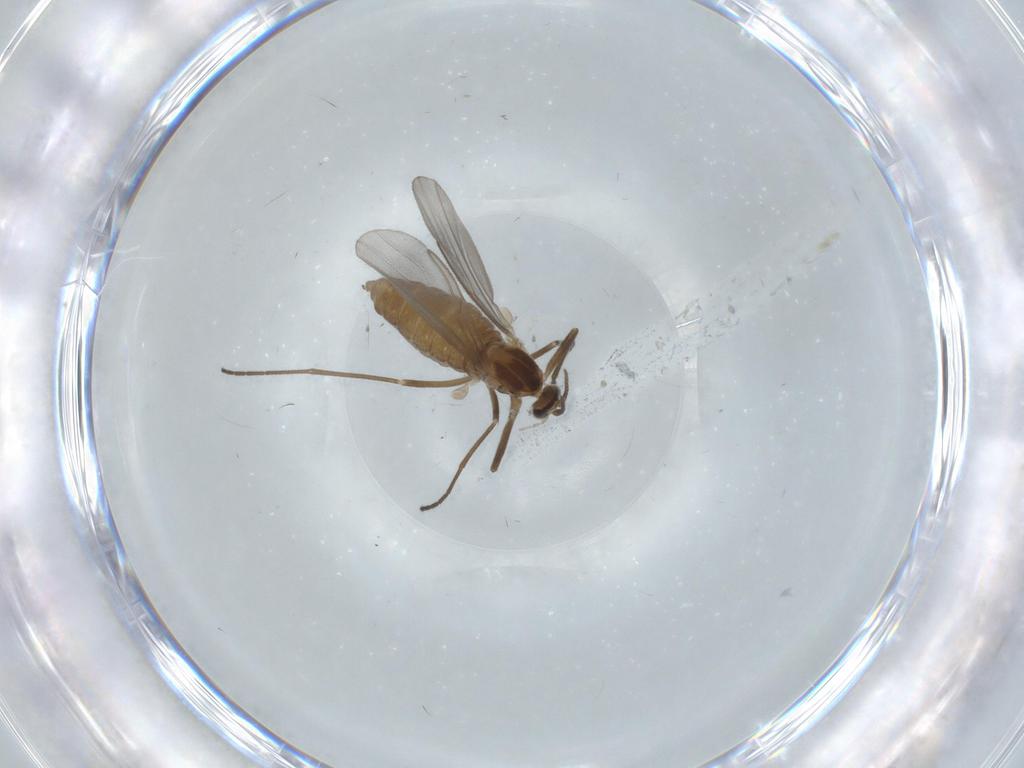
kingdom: Animalia
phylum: Arthropoda
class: Insecta
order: Diptera
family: Cecidomyiidae
